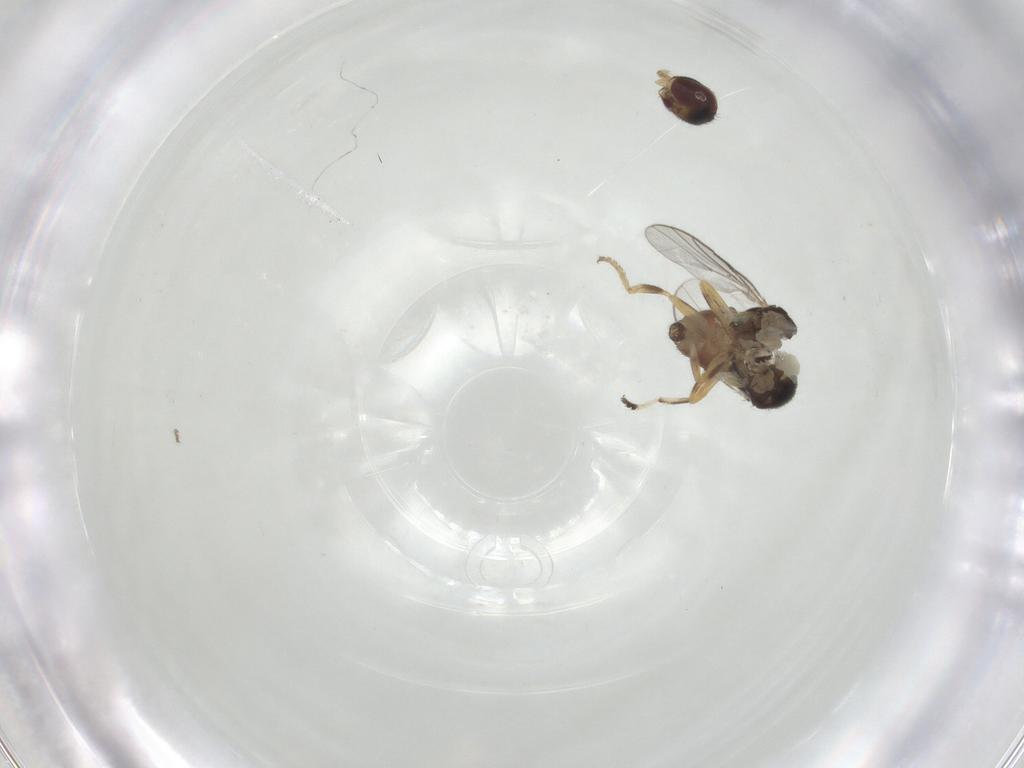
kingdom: Animalia
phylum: Arthropoda
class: Insecta
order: Diptera
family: Chloropidae
